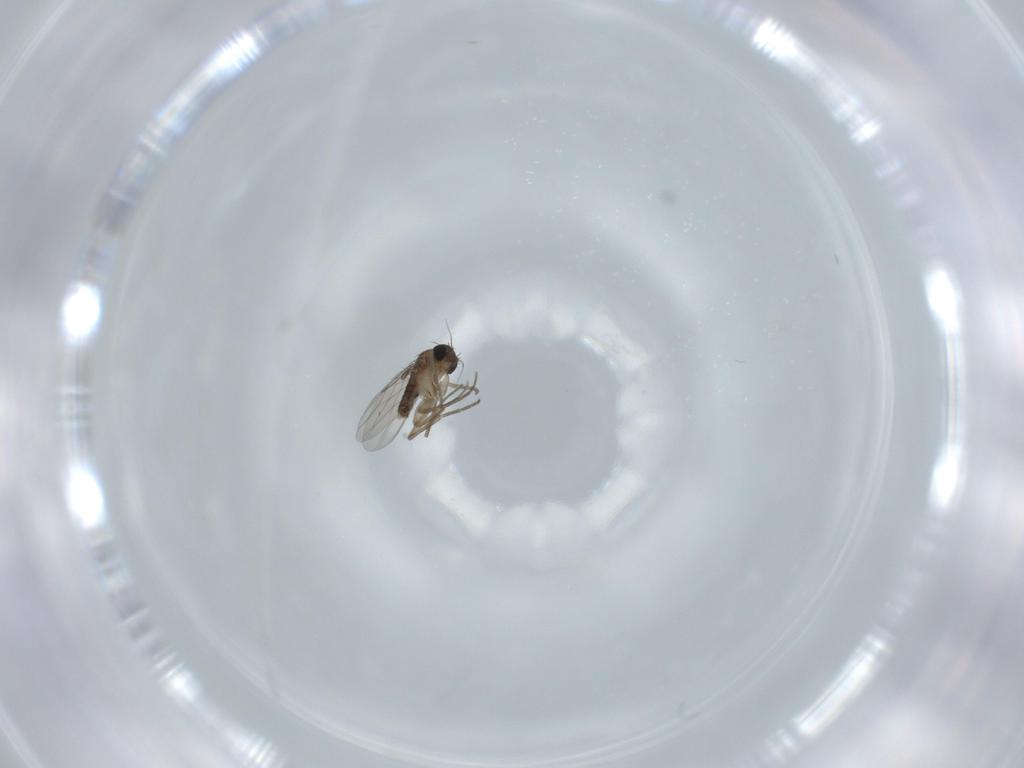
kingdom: Animalia
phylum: Arthropoda
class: Insecta
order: Diptera
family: Phoridae
